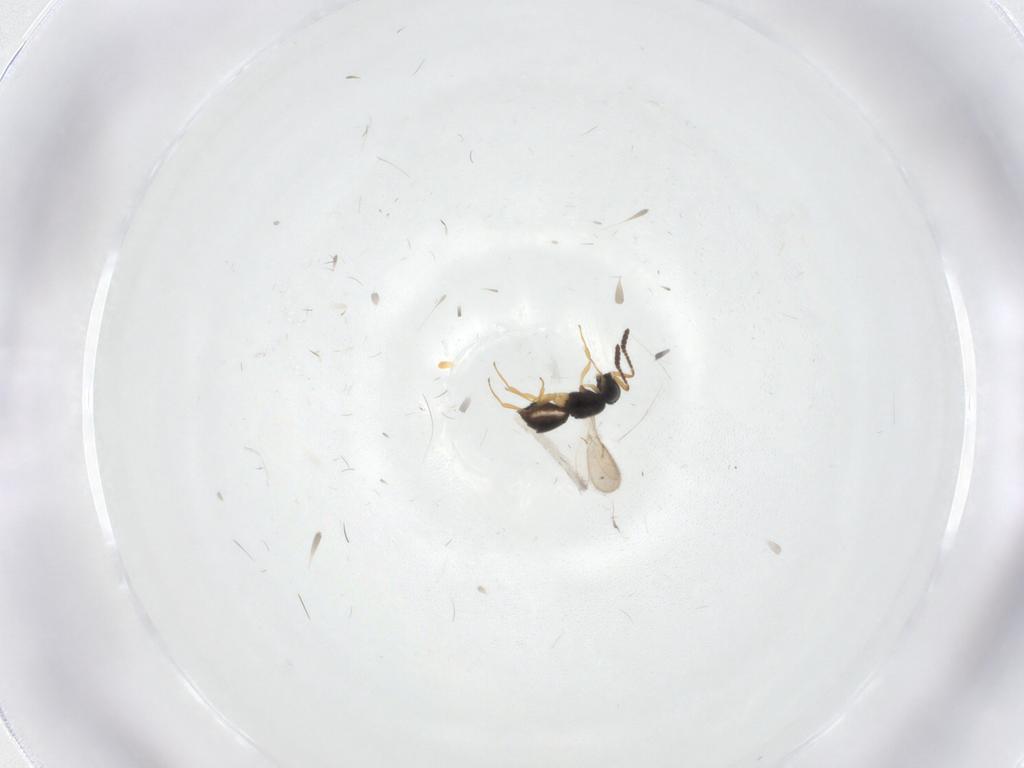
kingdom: Animalia
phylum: Arthropoda
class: Insecta
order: Hymenoptera
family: Scelionidae
